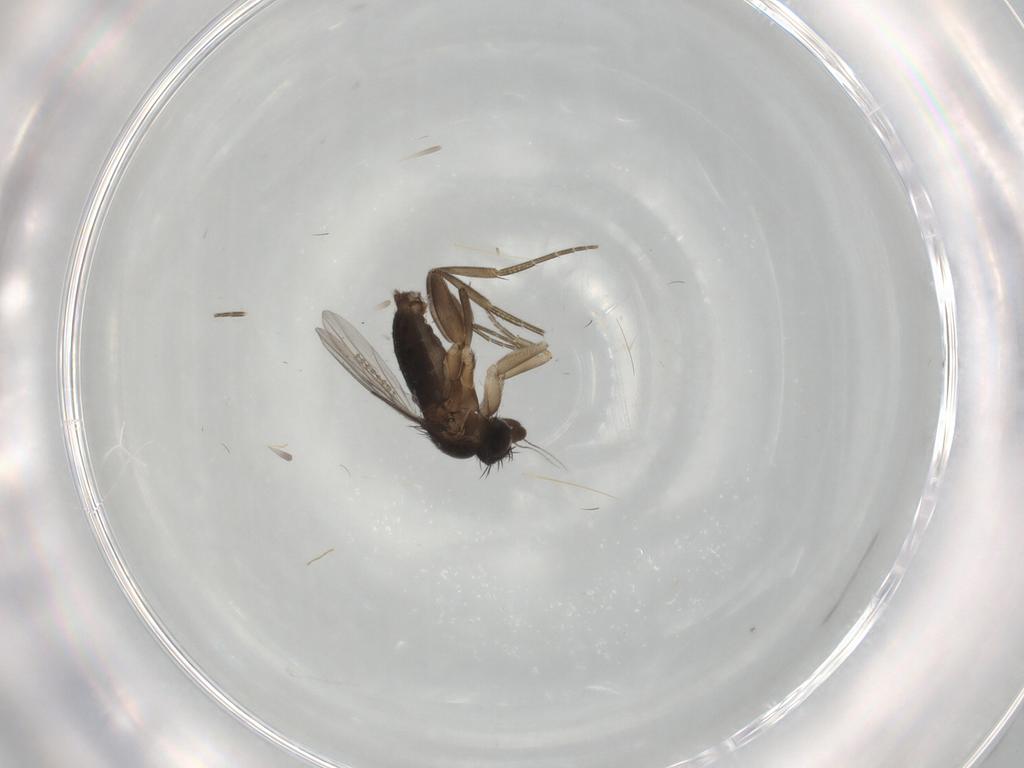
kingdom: Animalia
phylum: Arthropoda
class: Insecta
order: Diptera
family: Phoridae
